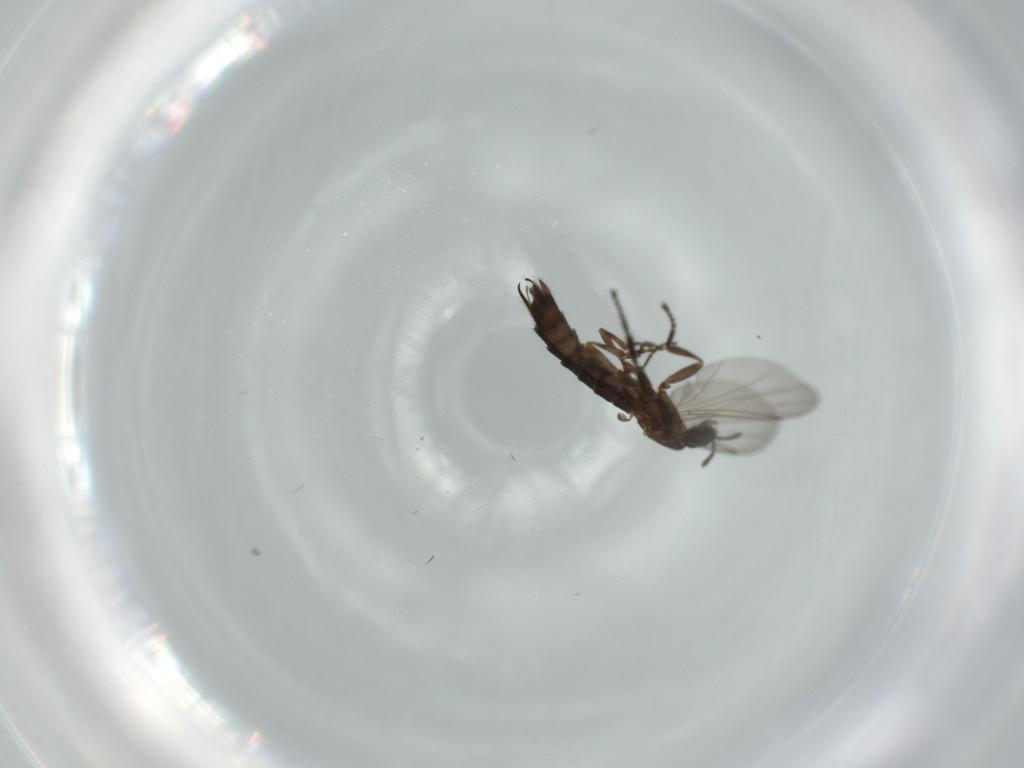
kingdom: Animalia
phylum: Arthropoda
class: Insecta
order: Diptera
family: Scatopsidae
